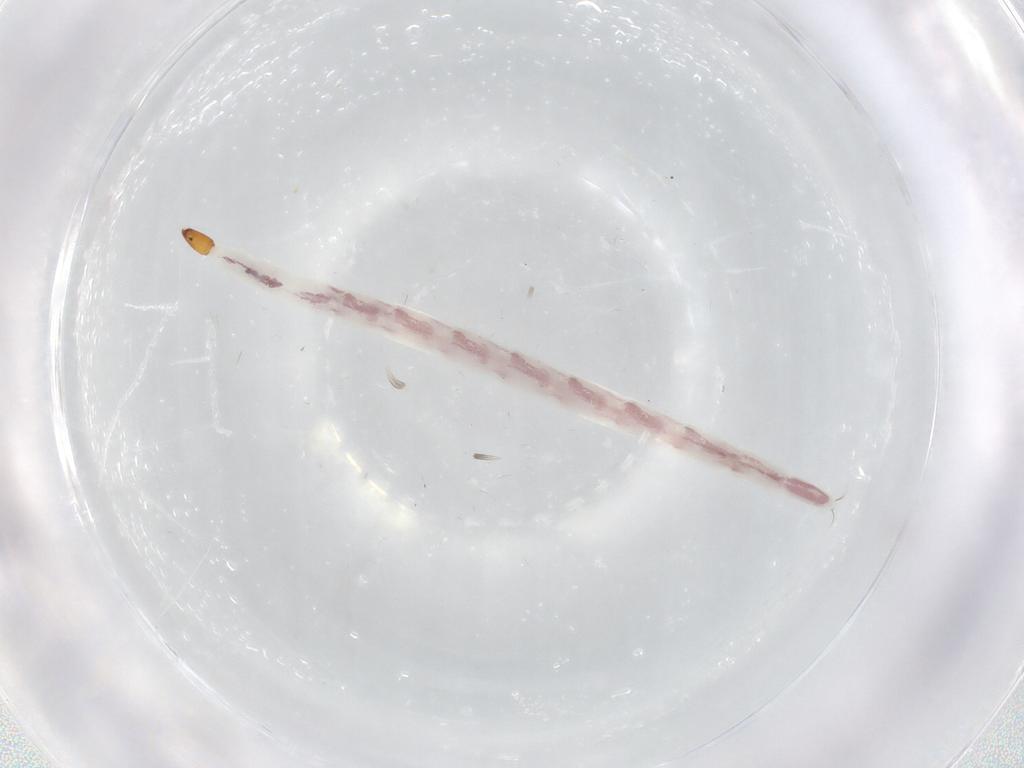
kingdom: Animalia
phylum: Arthropoda
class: Insecta
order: Coleoptera
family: Carabidae
